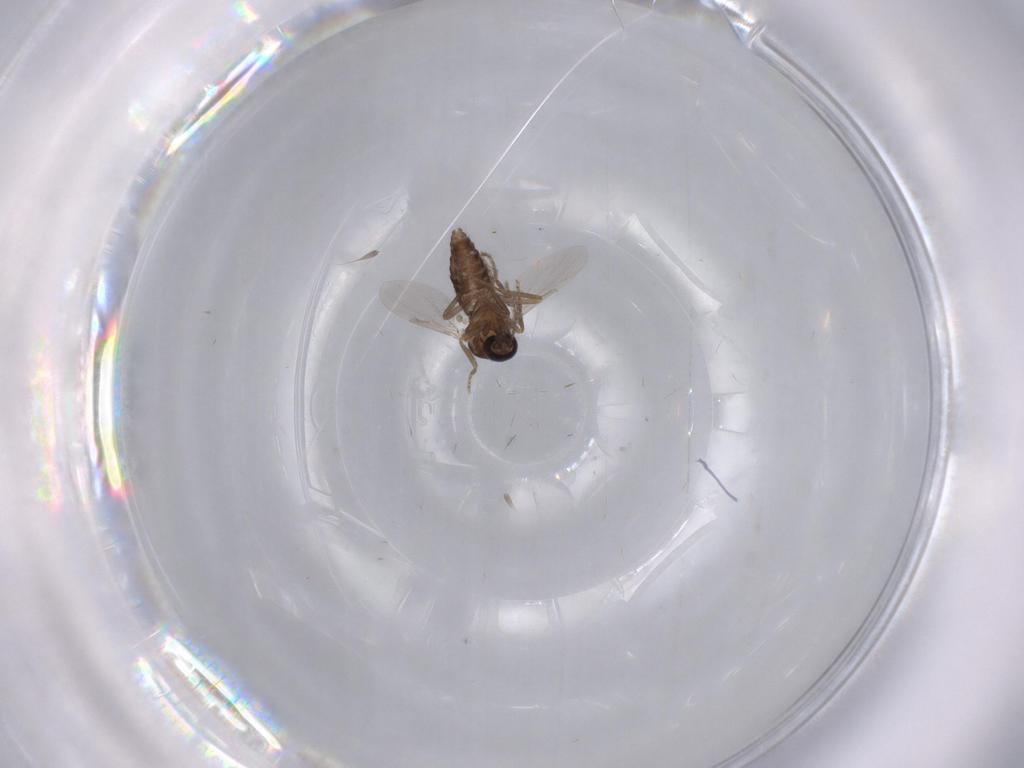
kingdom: Animalia
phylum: Arthropoda
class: Insecta
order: Diptera
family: Ceratopogonidae
